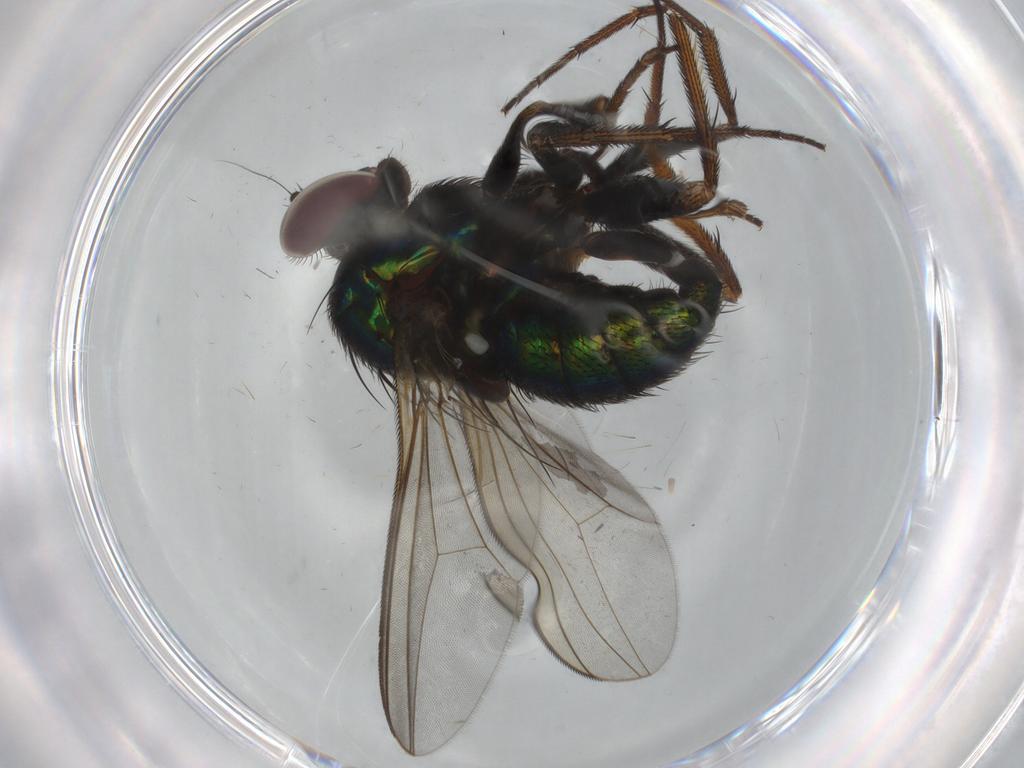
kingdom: Animalia
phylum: Arthropoda
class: Insecta
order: Diptera
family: Dolichopodidae
